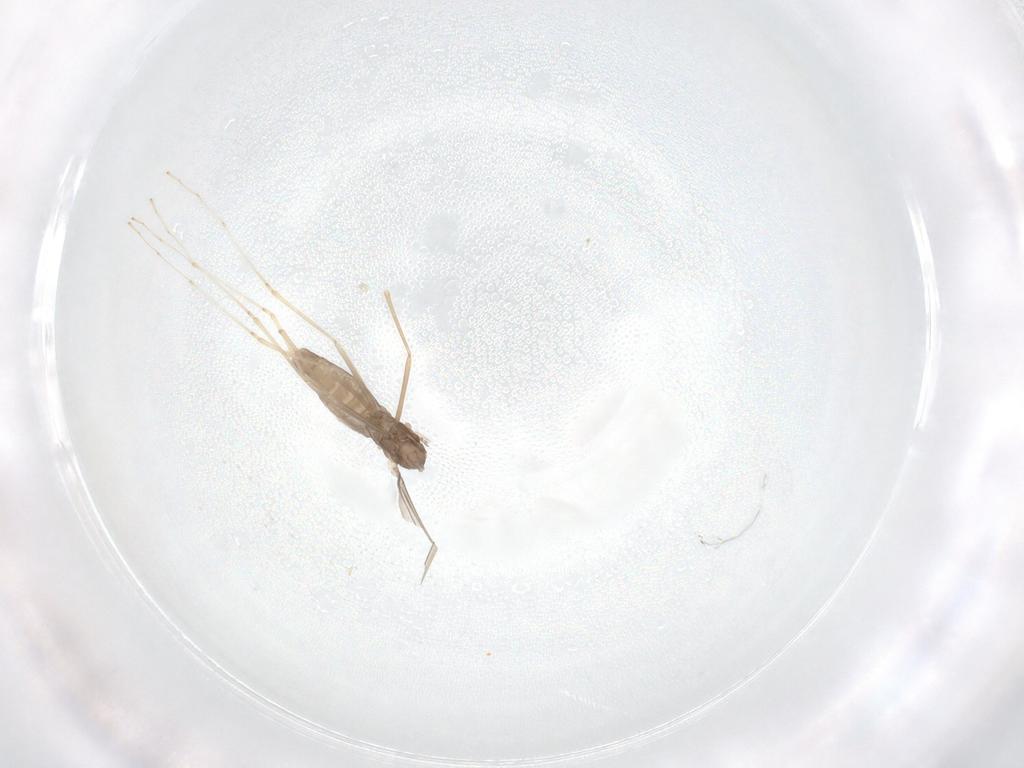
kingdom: Animalia
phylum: Arthropoda
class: Insecta
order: Diptera
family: Cecidomyiidae
